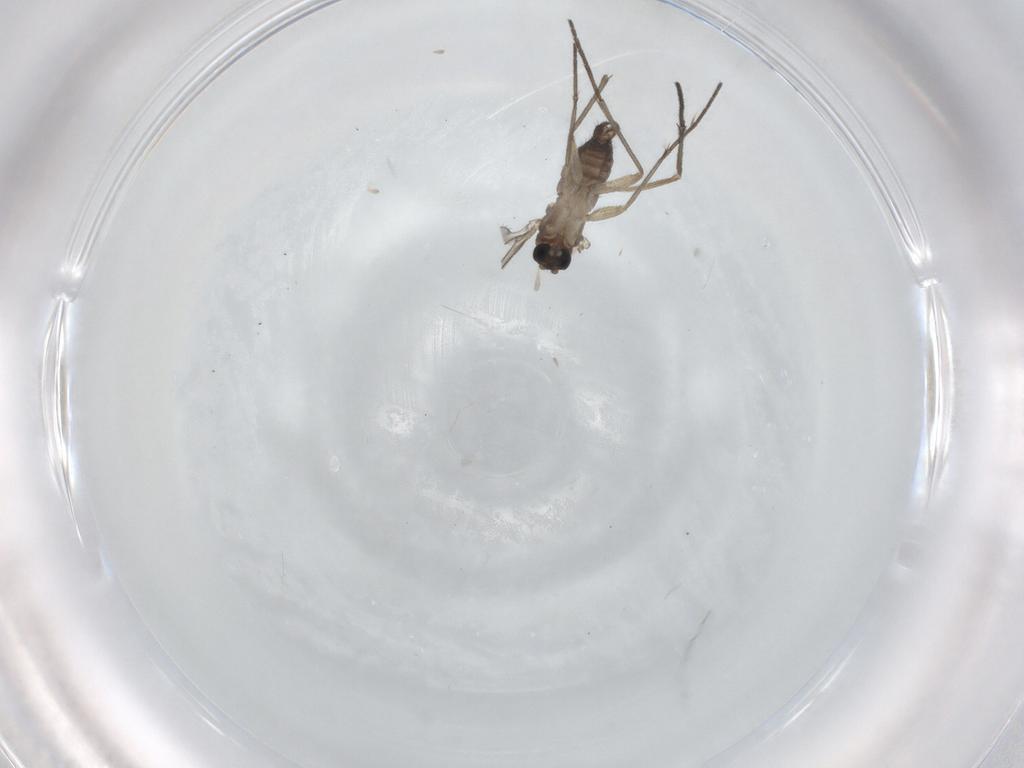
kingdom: Animalia
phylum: Arthropoda
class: Insecta
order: Diptera
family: Sciaridae
